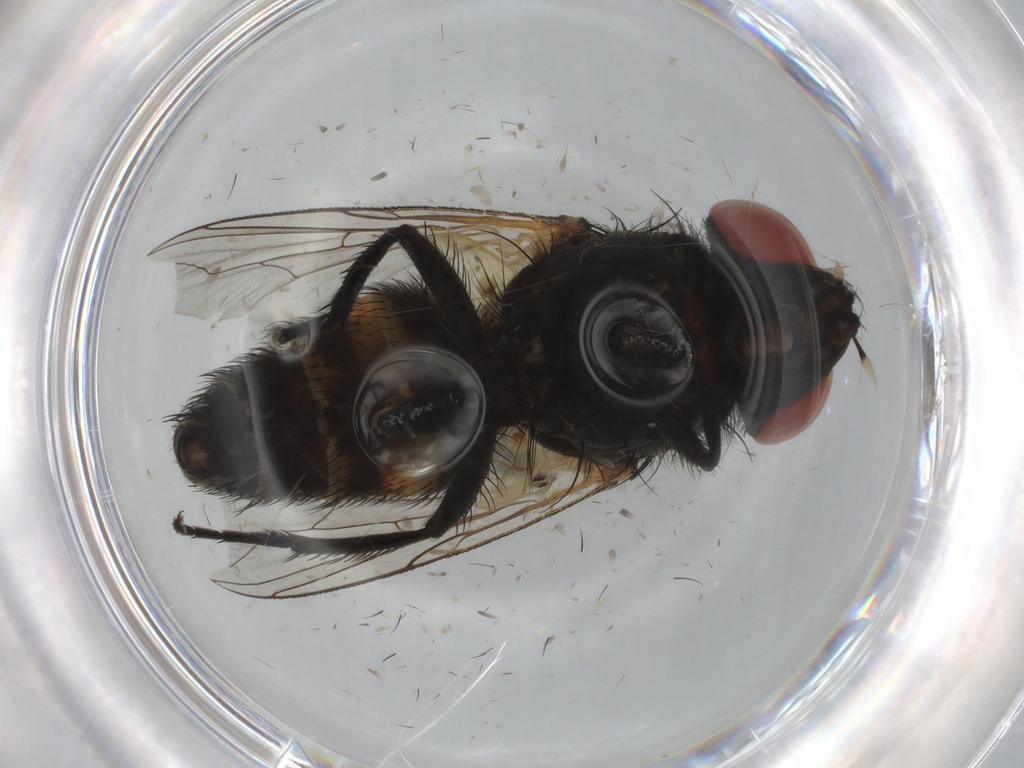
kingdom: Animalia
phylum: Arthropoda
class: Insecta
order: Diptera
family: Sarcophagidae
